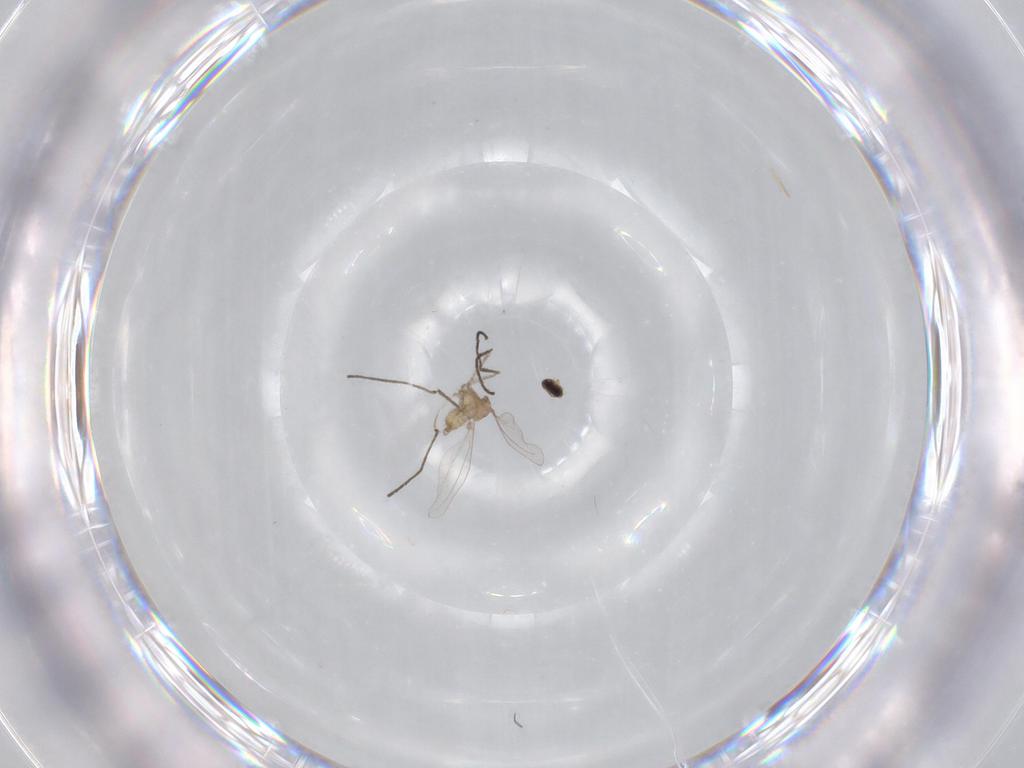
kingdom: Animalia
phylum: Arthropoda
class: Insecta
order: Diptera
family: Cecidomyiidae
